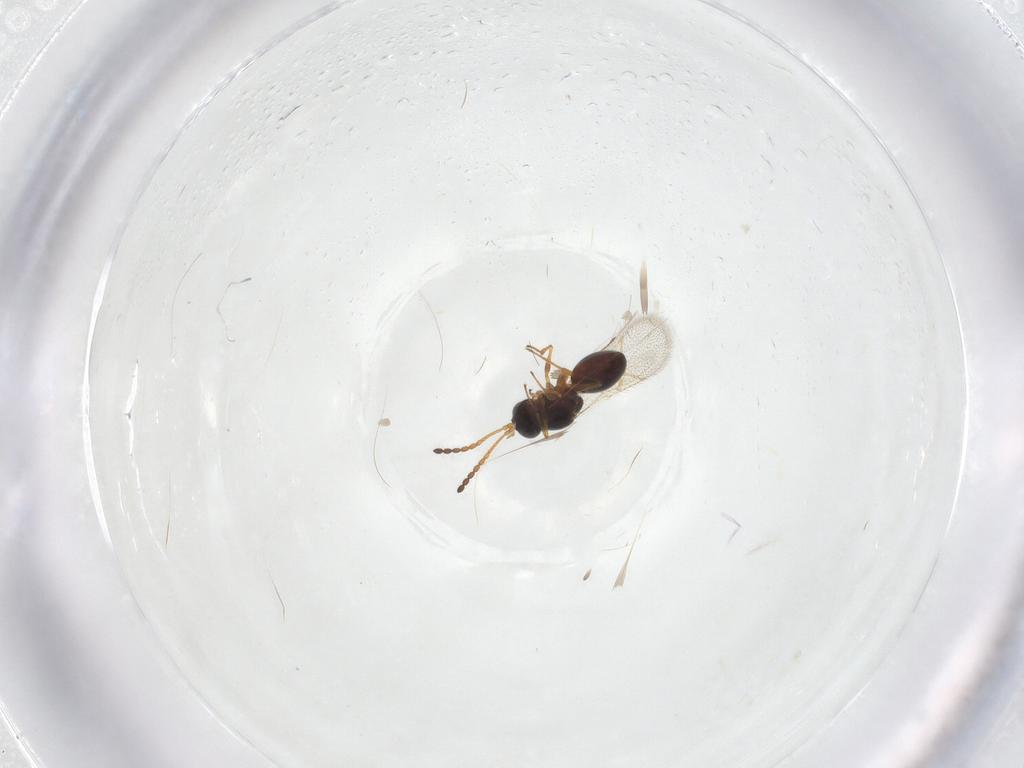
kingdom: Animalia
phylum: Arthropoda
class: Insecta
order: Hymenoptera
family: Figitidae
